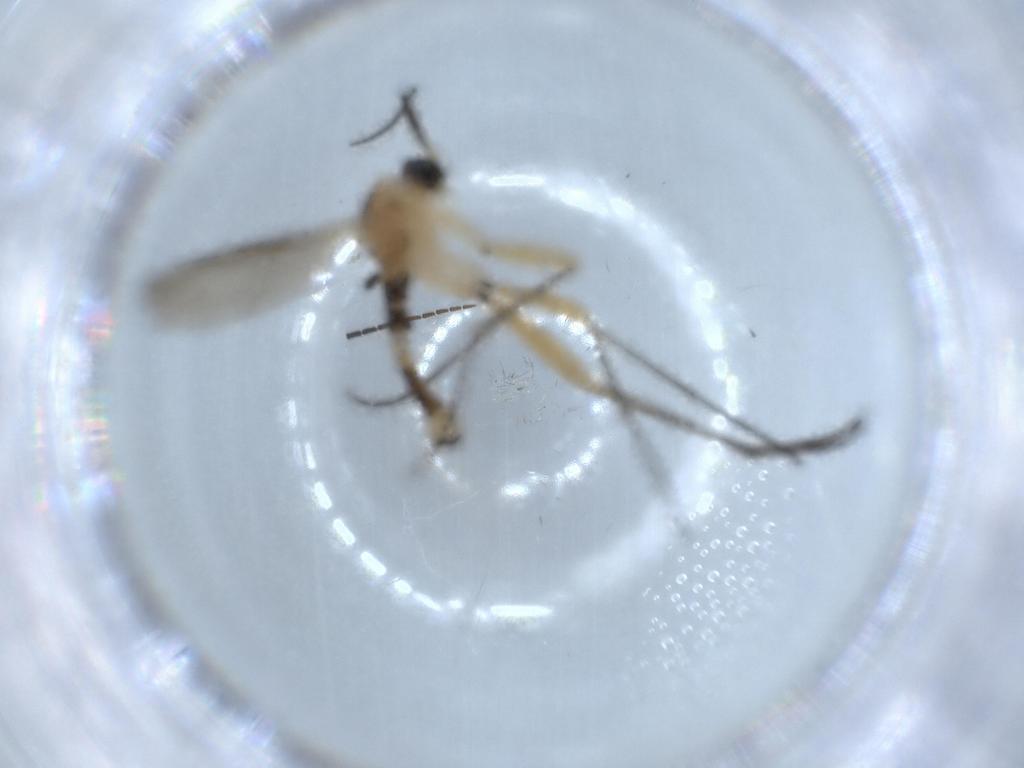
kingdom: Animalia
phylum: Arthropoda
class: Insecta
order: Diptera
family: Sciaridae
